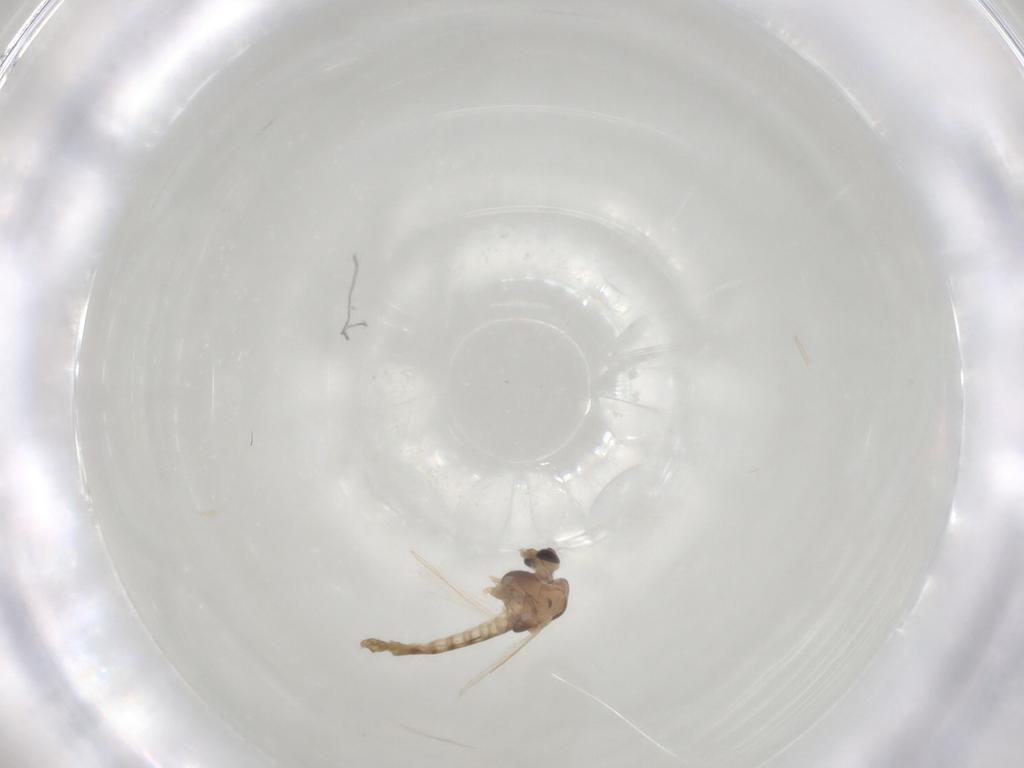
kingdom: Animalia
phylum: Arthropoda
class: Insecta
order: Diptera
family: Chironomidae
